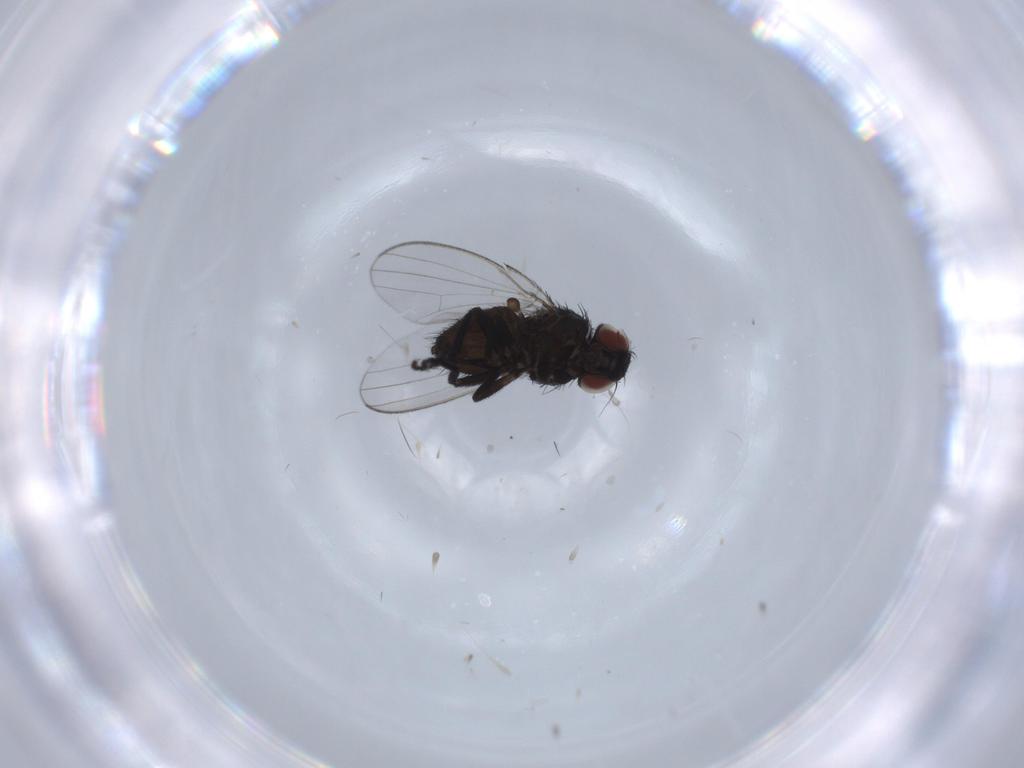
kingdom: Animalia
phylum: Arthropoda
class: Insecta
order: Diptera
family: Milichiidae
